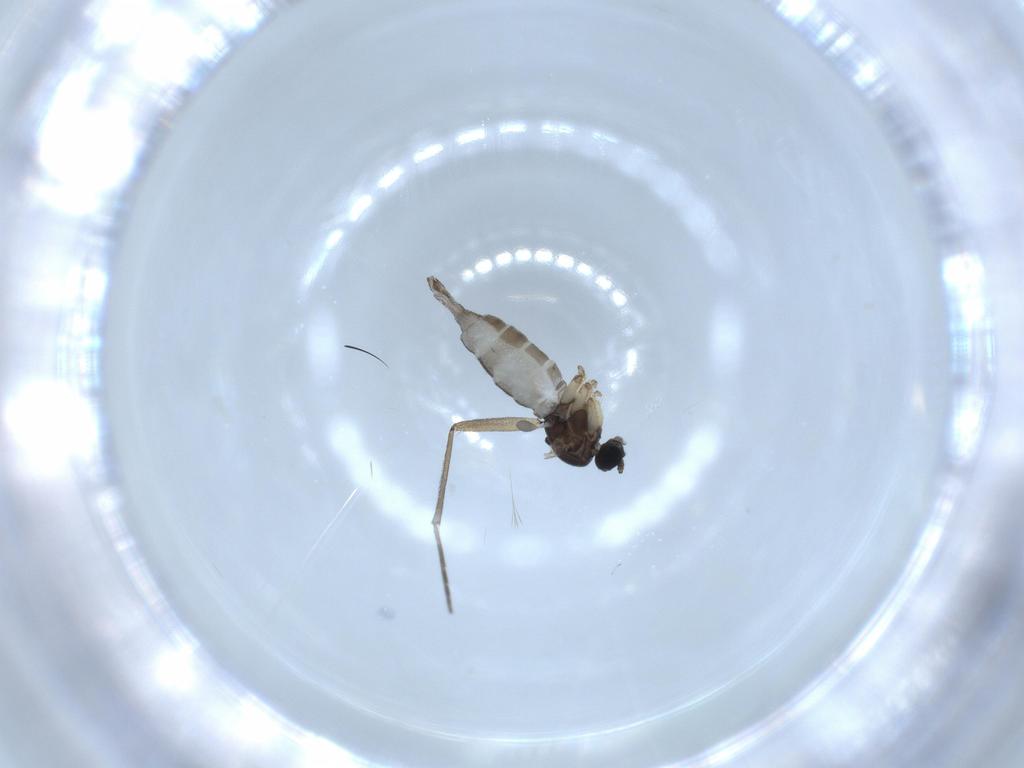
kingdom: Animalia
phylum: Arthropoda
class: Insecta
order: Diptera
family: Sciaridae
